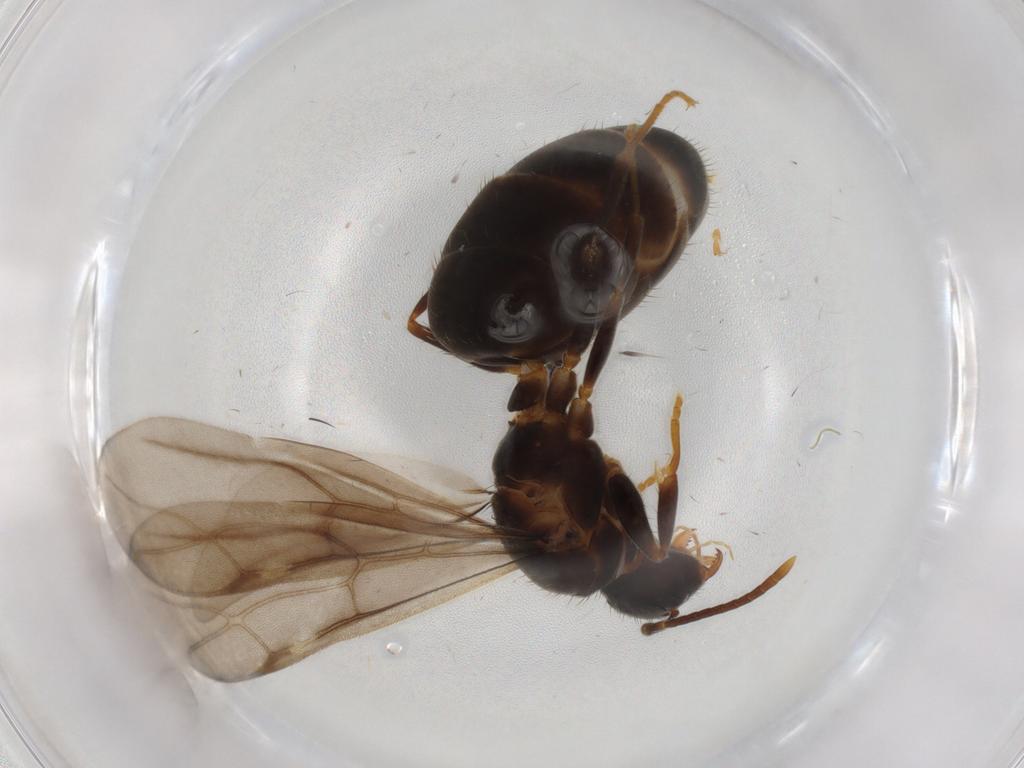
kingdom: Animalia
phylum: Arthropoda
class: Insecta
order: Hymenoptera
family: Formicidae
